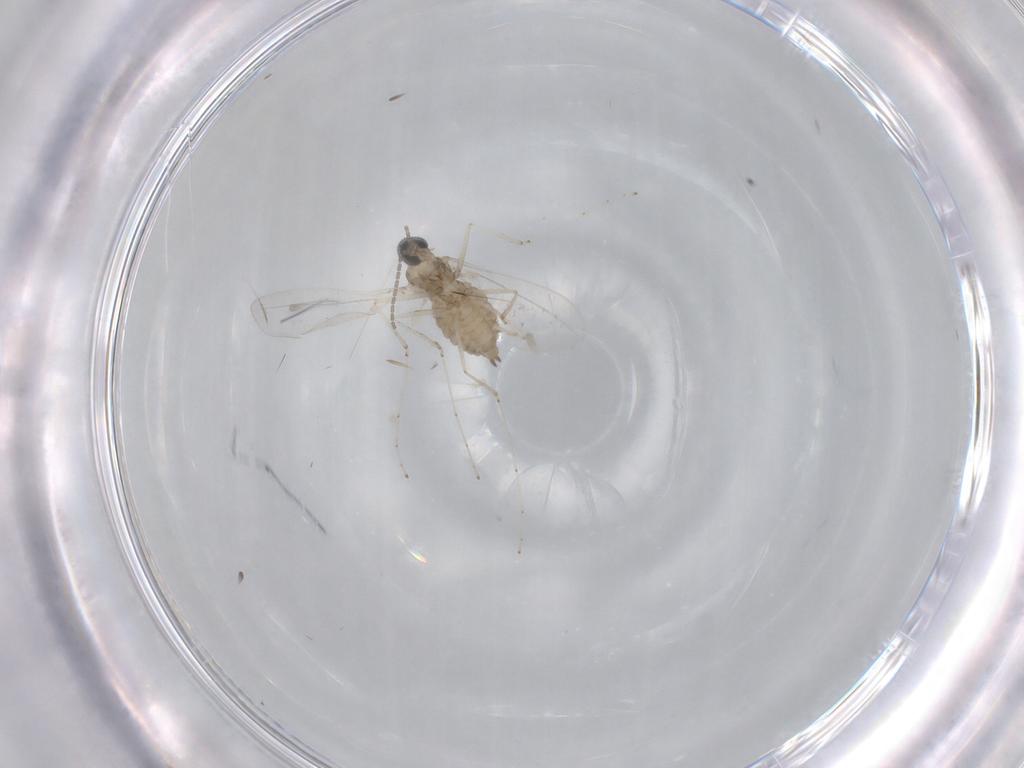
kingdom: Animalia
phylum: Arthropoda
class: Insecta
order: Diptera
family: Cecidomyiidae
